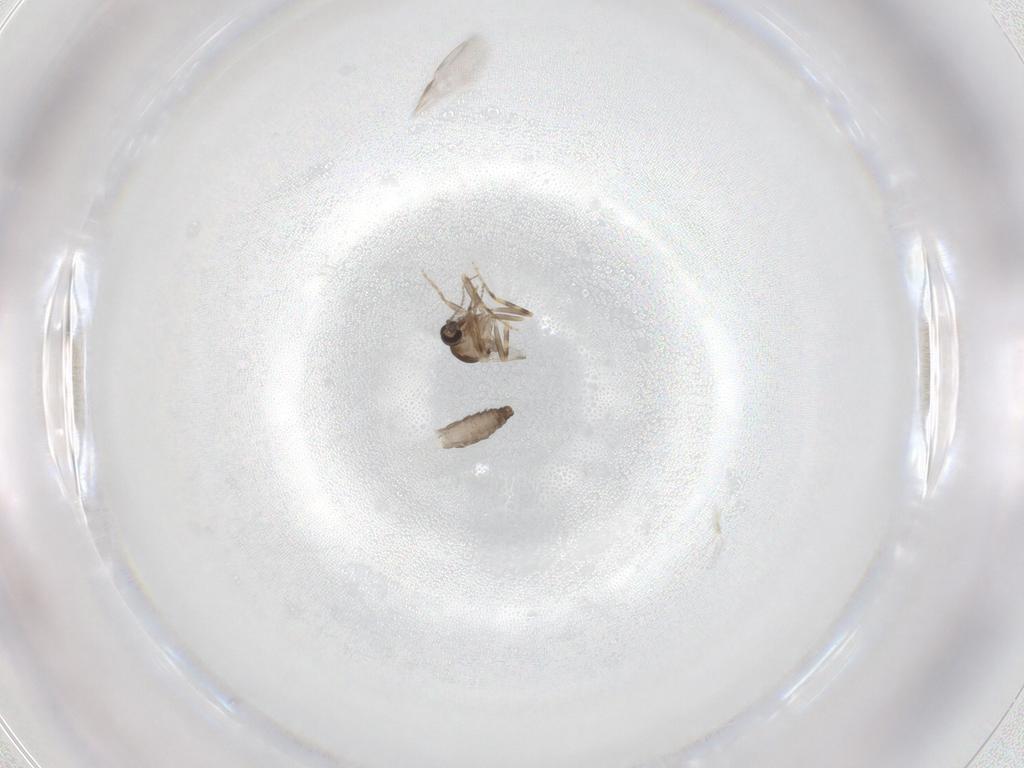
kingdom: Animalia
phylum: Arthropoda
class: Insecta
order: Diptera
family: Ceratopogonidae
